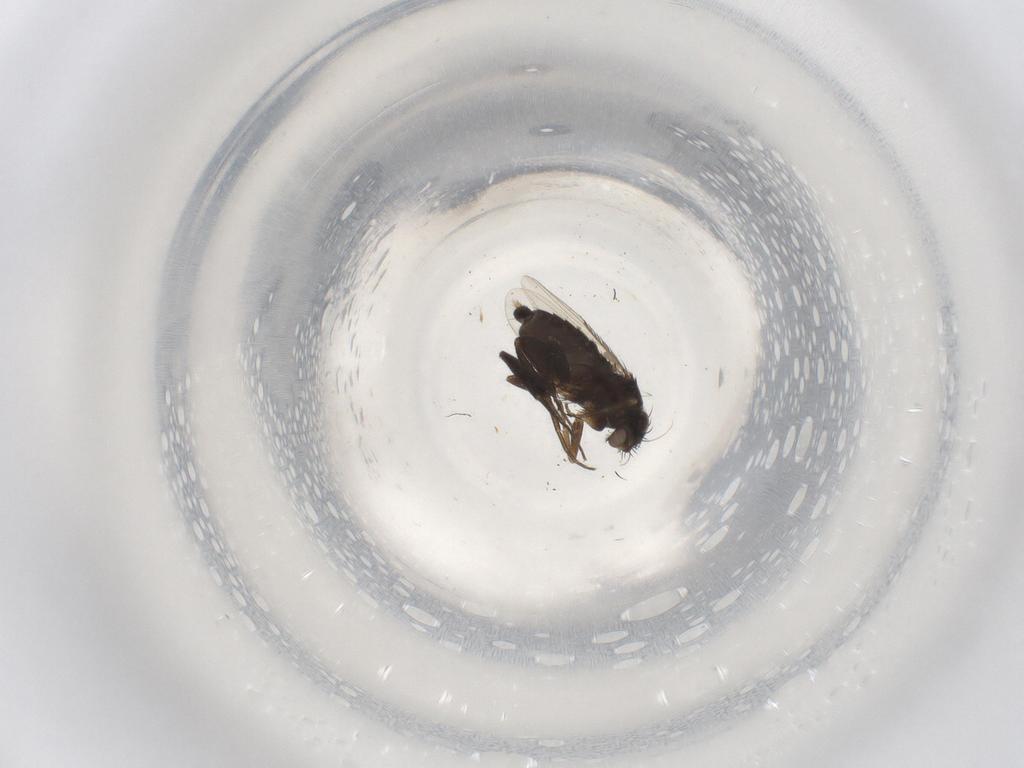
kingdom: Animalia
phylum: Arthropoda
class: Insecta
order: Diptera
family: Phoridae
